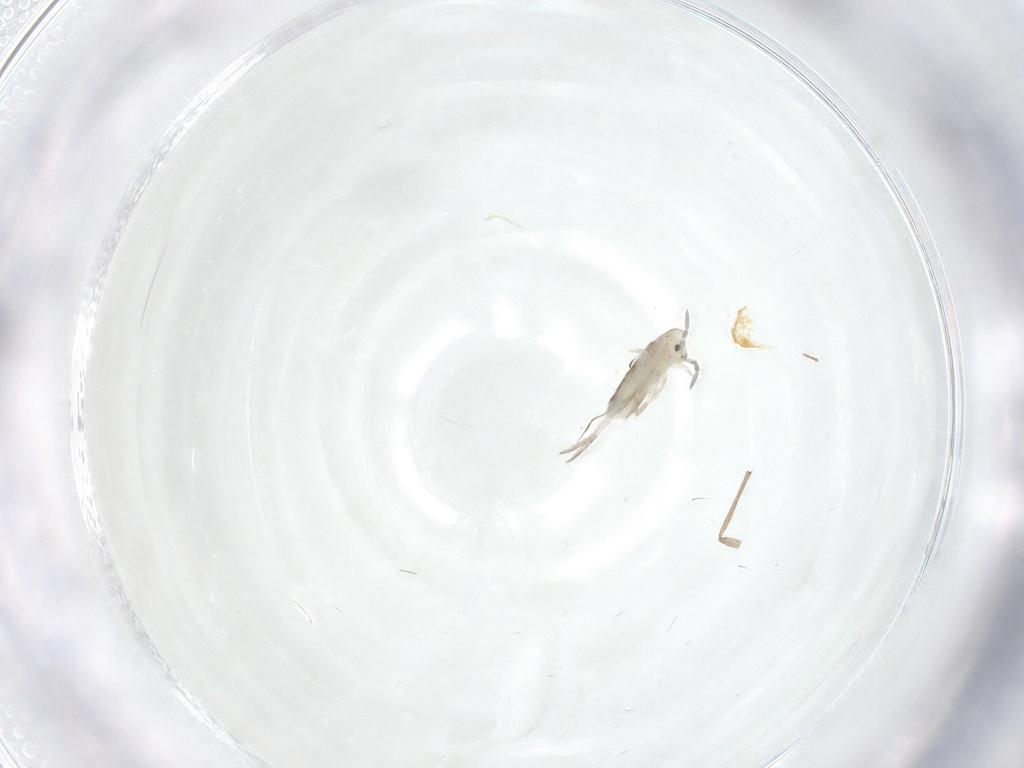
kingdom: Animalia
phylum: Arthropoda
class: Collembola
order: Entomobryomorpha
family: Entomobryidae
